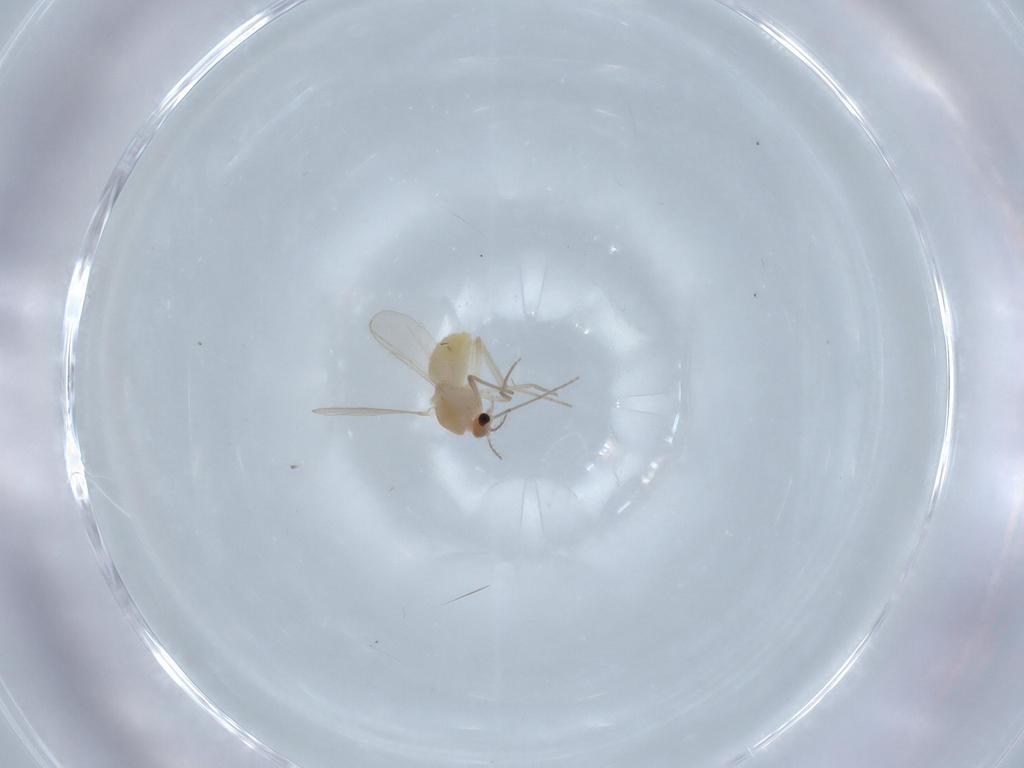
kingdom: Animalia
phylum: Arthropoda
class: Insecta
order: Diptera
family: Chironomidae
